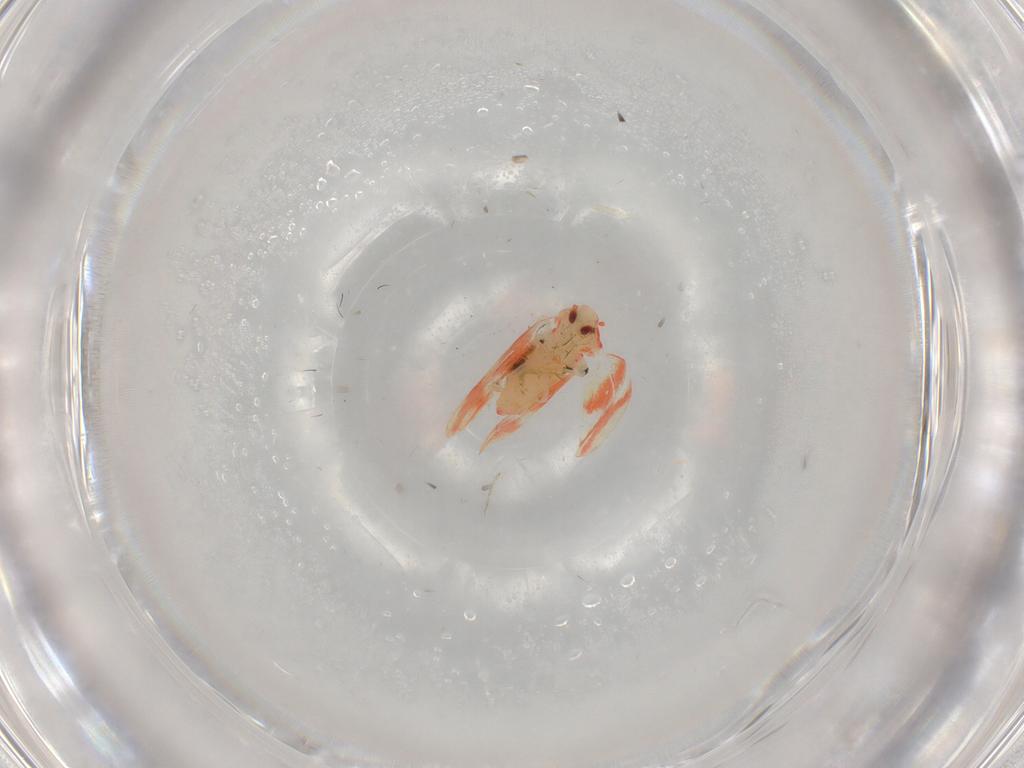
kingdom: Animalia
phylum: Arthropoda
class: Insecta
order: Hemiptera
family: Aleyrodidae
